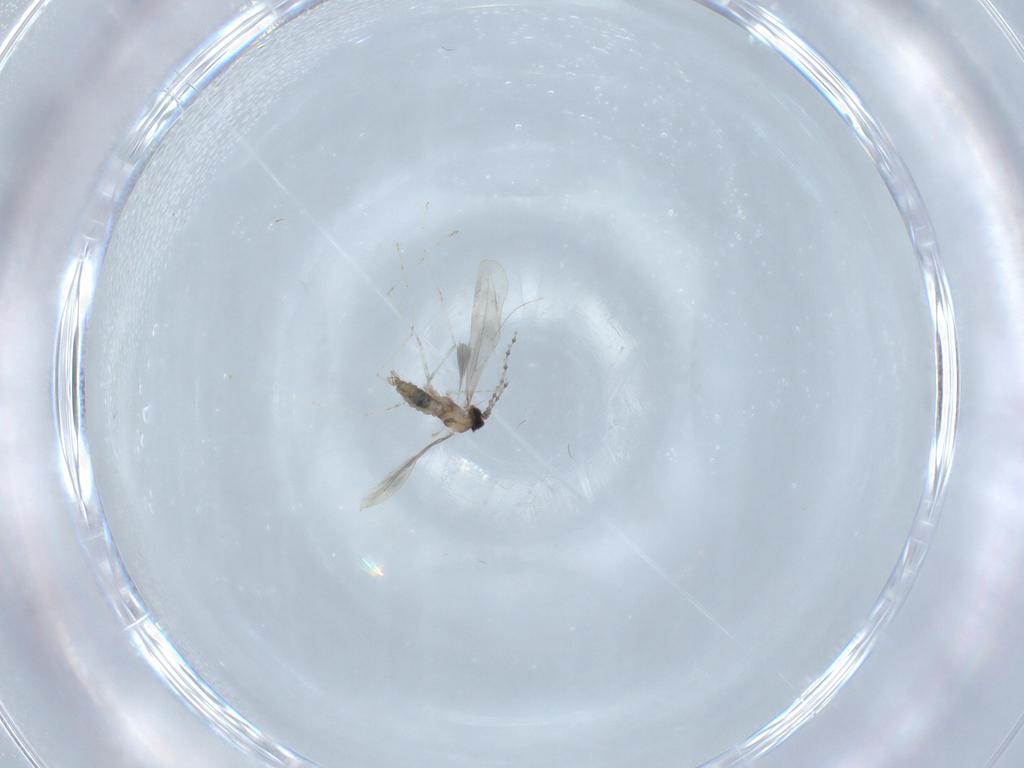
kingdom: Animalia
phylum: Arthropoda
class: Insecta
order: Diptera
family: Cecidomyiidae
